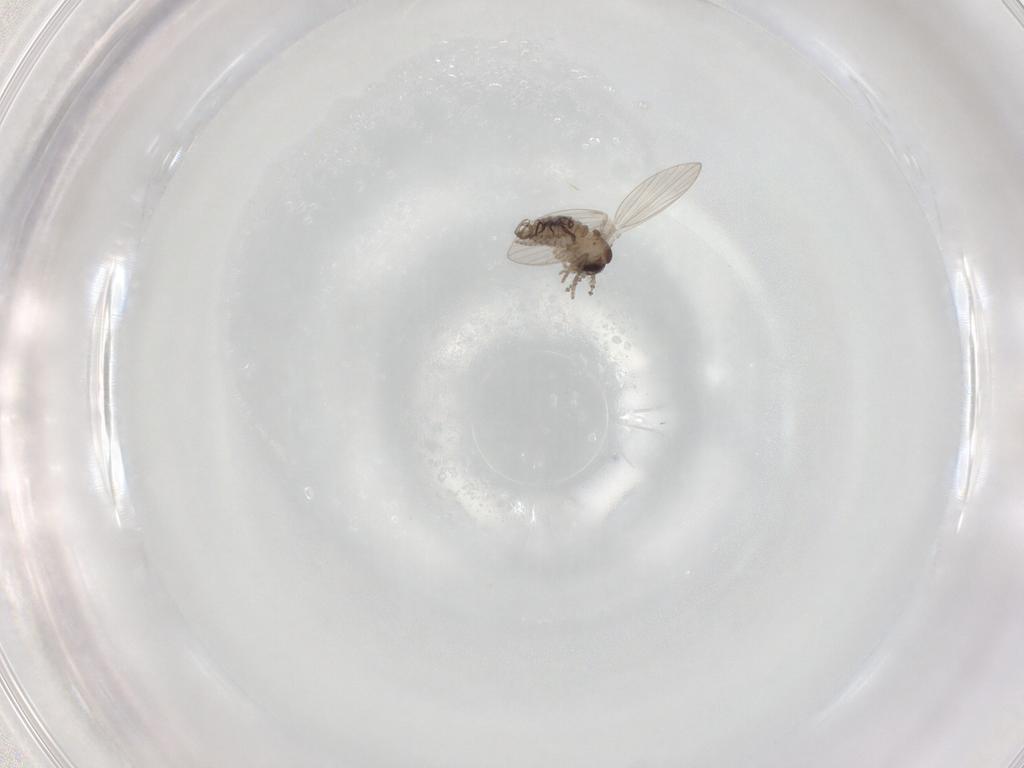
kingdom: Animalia
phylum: Arthropoda
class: Insecta
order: Diptera
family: Psychodidae
